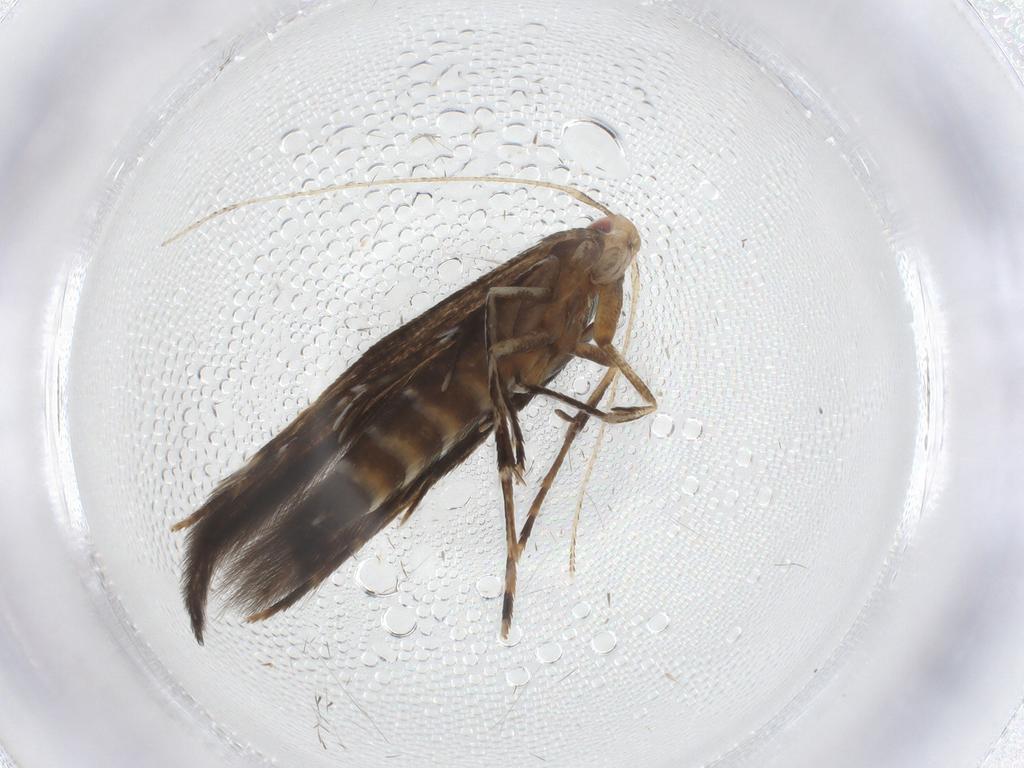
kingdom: Animalia
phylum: Arthropoda
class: Insecta
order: Lepidoptera
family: Cosmopterigidae
